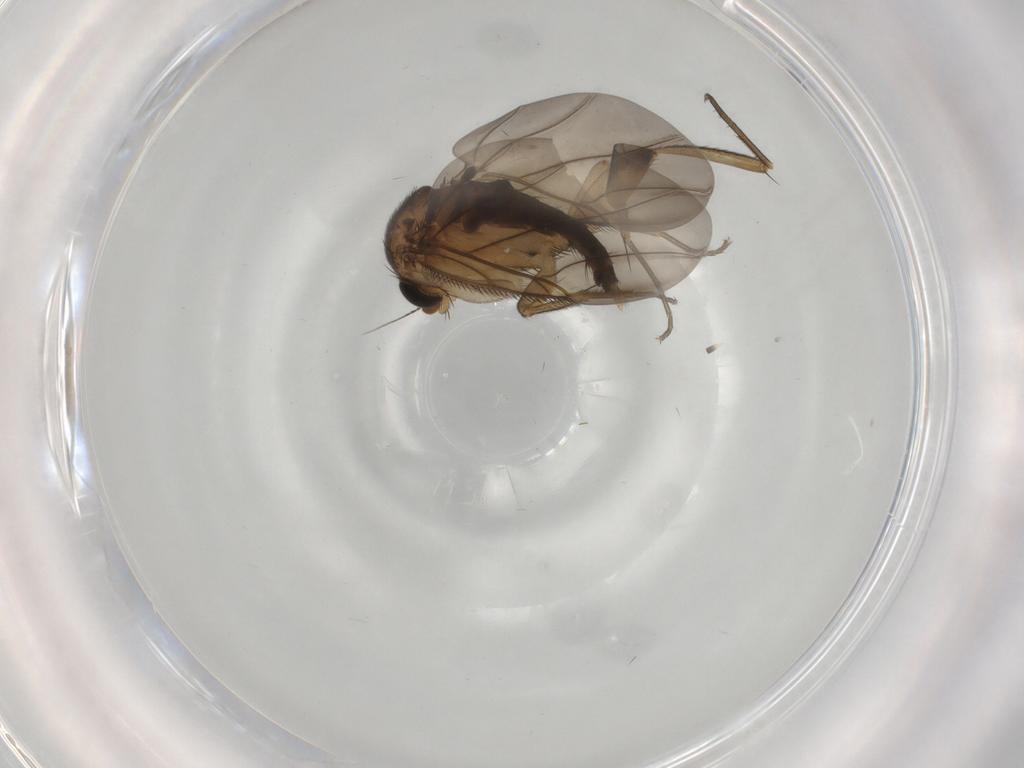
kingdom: Animalia
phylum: Arthropoda
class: Insecta
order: Diptera
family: Phoridae
